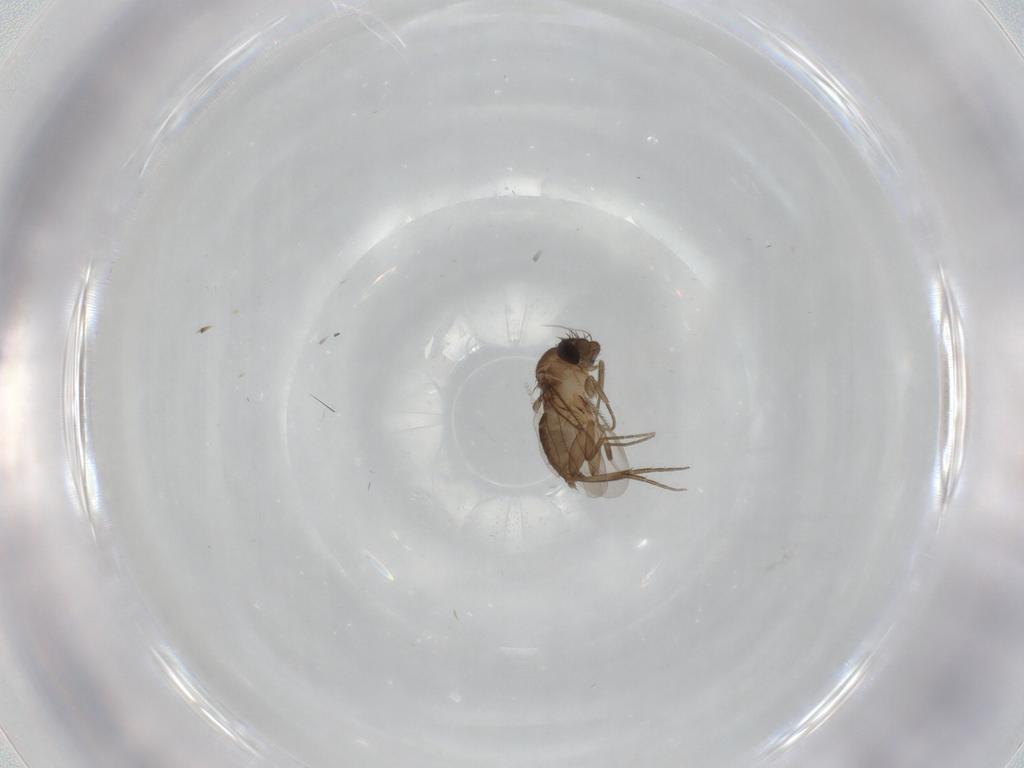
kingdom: Animalia
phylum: Arthropoda
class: Insecta
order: Diptera
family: Phoridae
